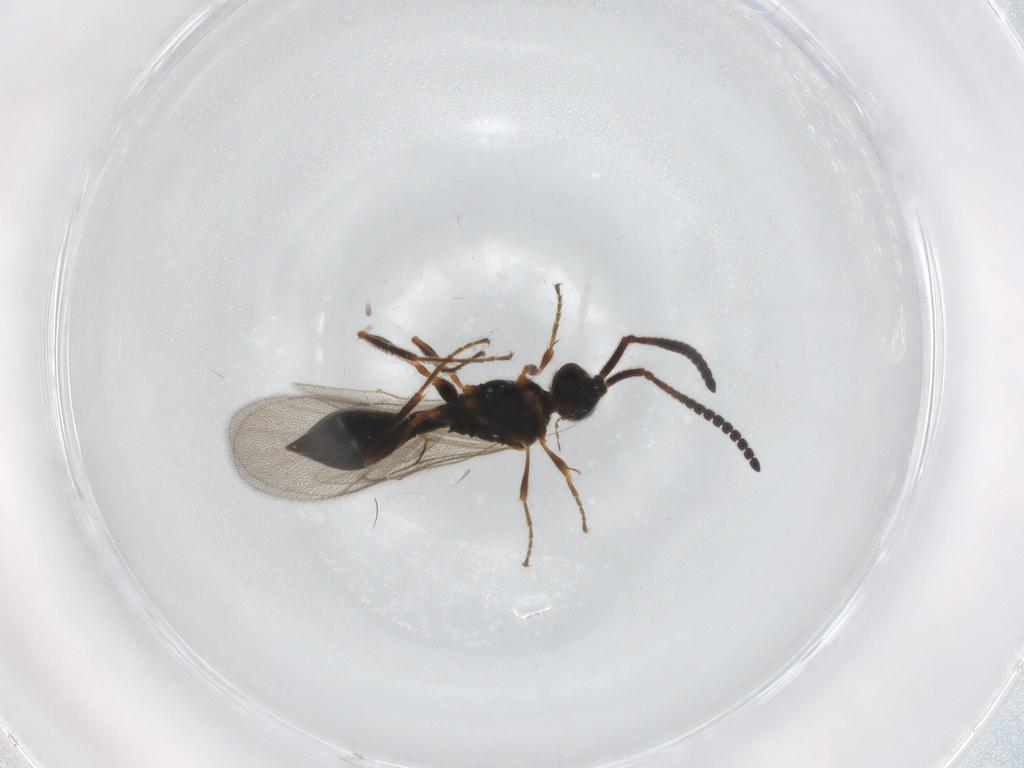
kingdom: Animalia
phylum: Arthropoda
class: Insecta
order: Hymenoptera
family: Diapriidae
